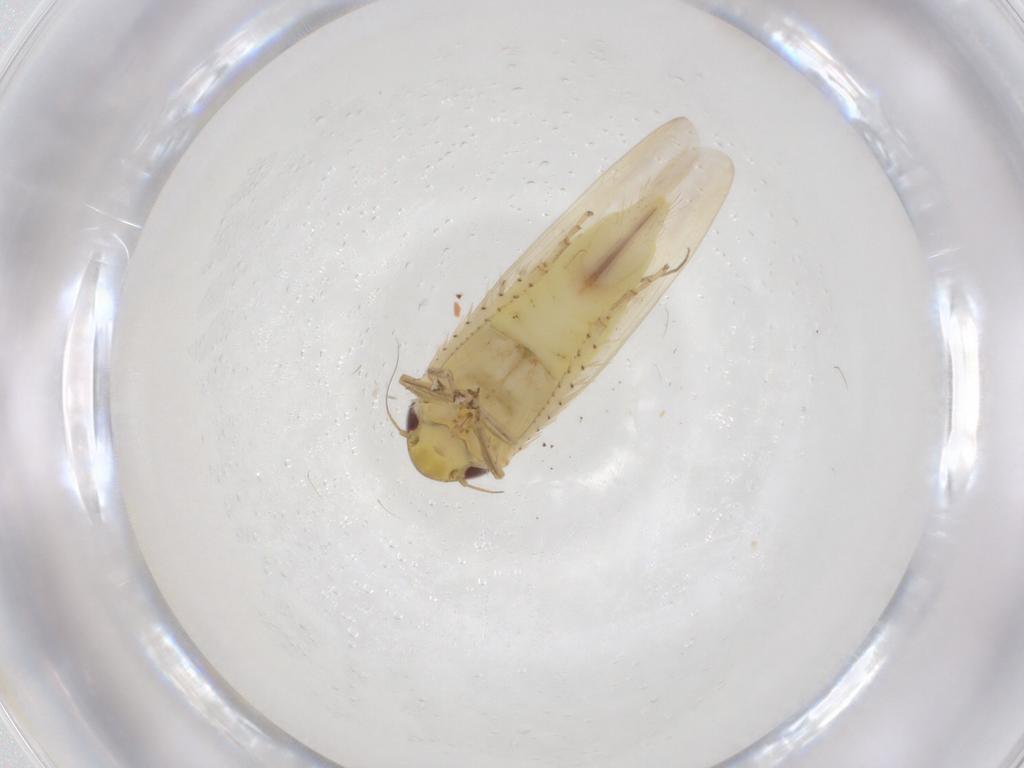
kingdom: Animalia
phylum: Arthropoda
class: Insecta
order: Hemiptera
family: Cicadellidae
